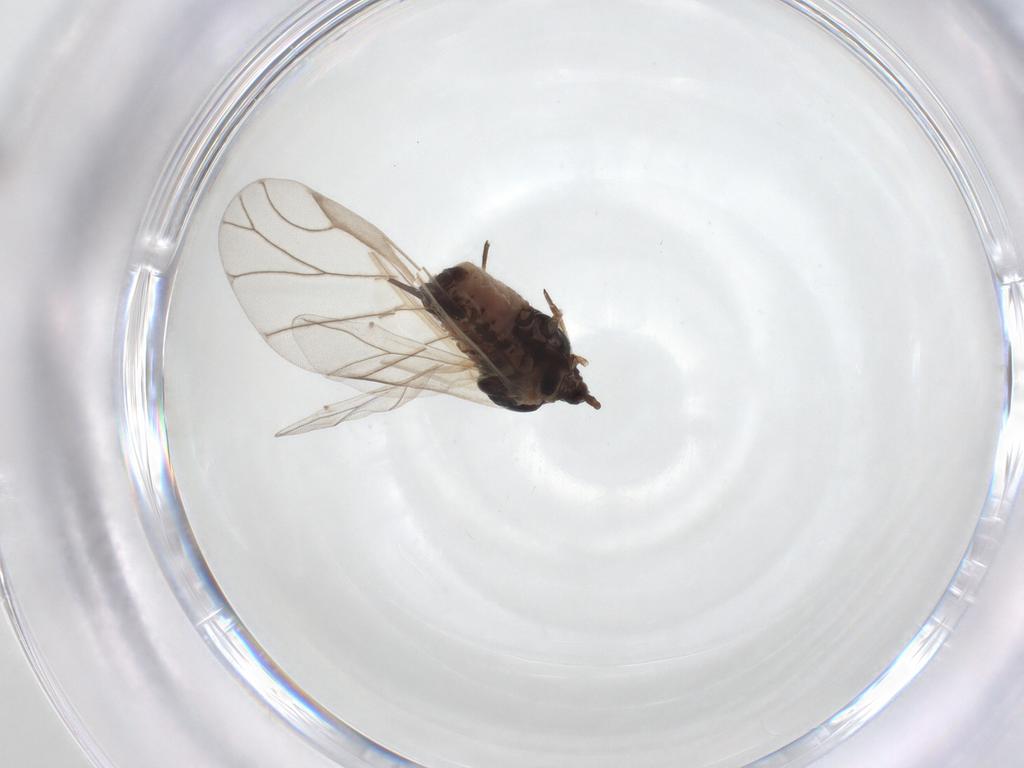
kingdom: Animalia
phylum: Arthropoda
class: Insecta
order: Hemiptera
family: Aphididae
